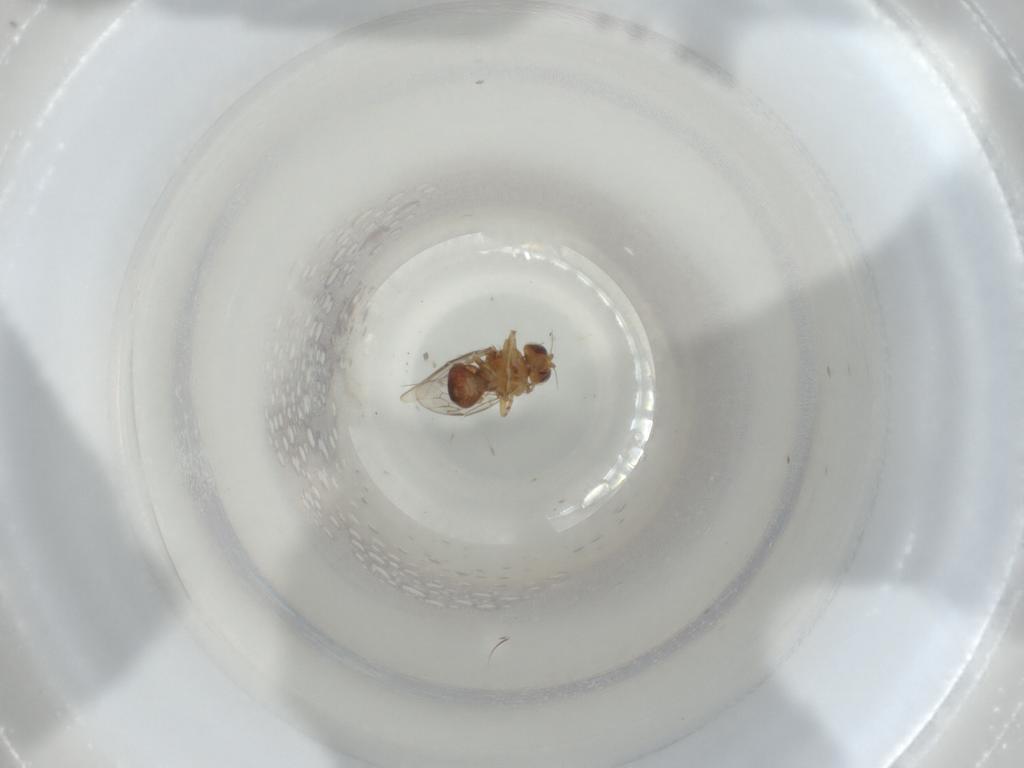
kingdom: Animalia
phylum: Arthropoda
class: Insecta
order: Diptera
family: Chloropidae
